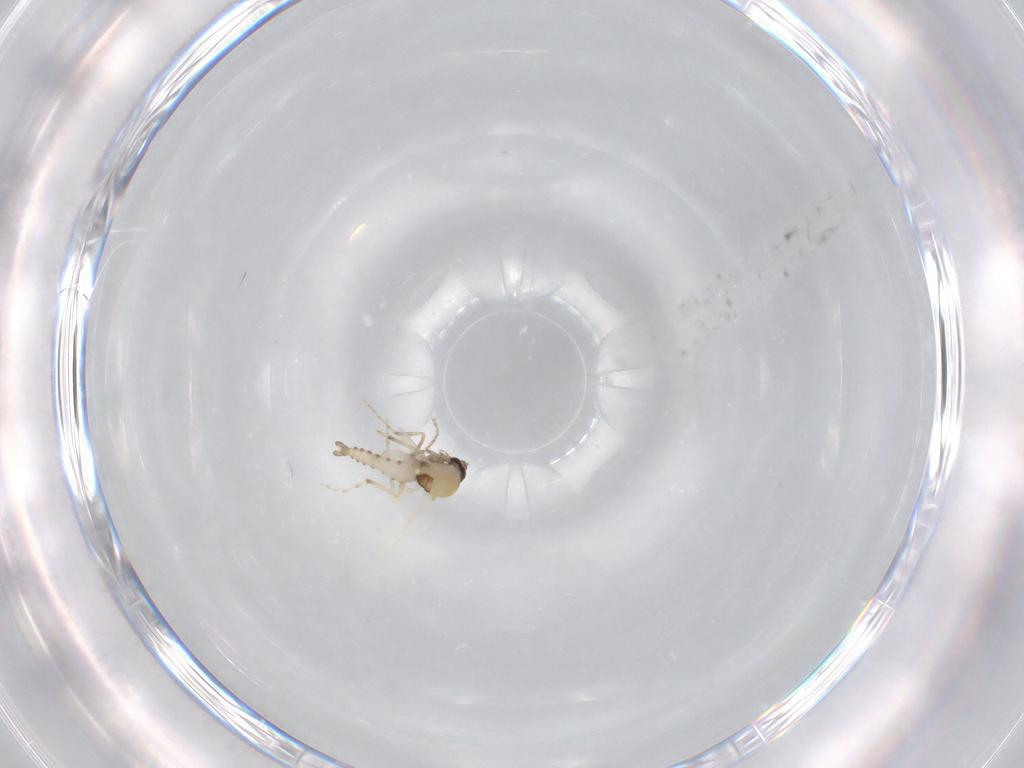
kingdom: Animalia
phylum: Arthropoda
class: Insecta
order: Diptera
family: Ceratopogonidae
